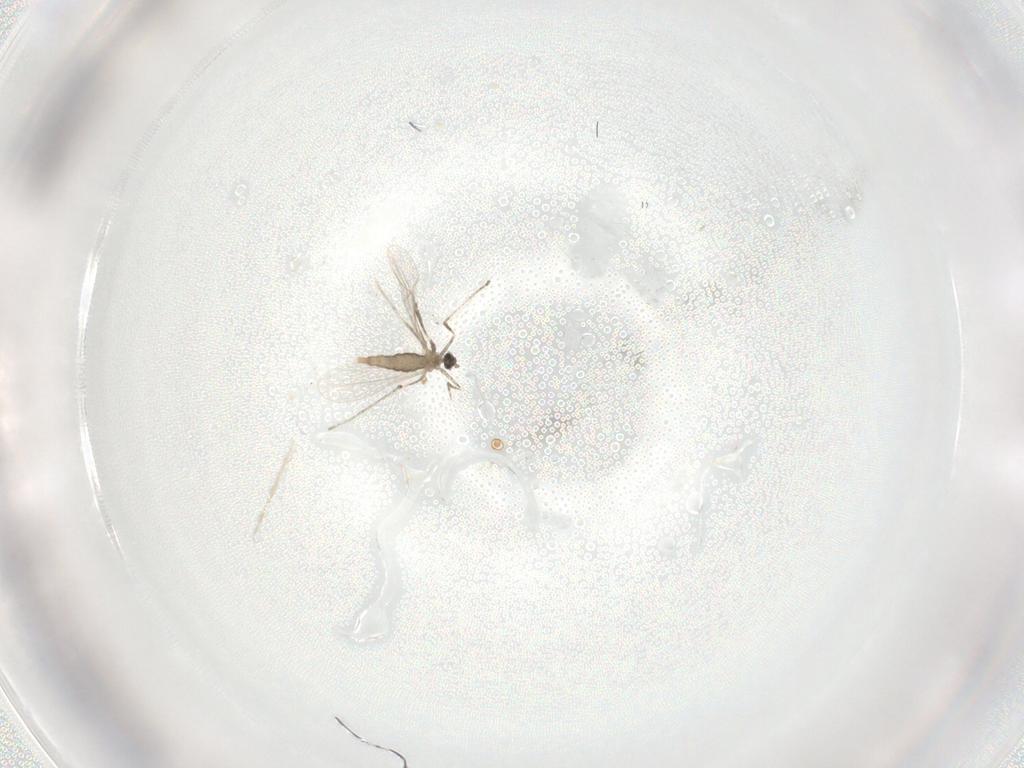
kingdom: Animalia
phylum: Arthropoda
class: Insecta
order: Diptera
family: Cecidomyiidae
